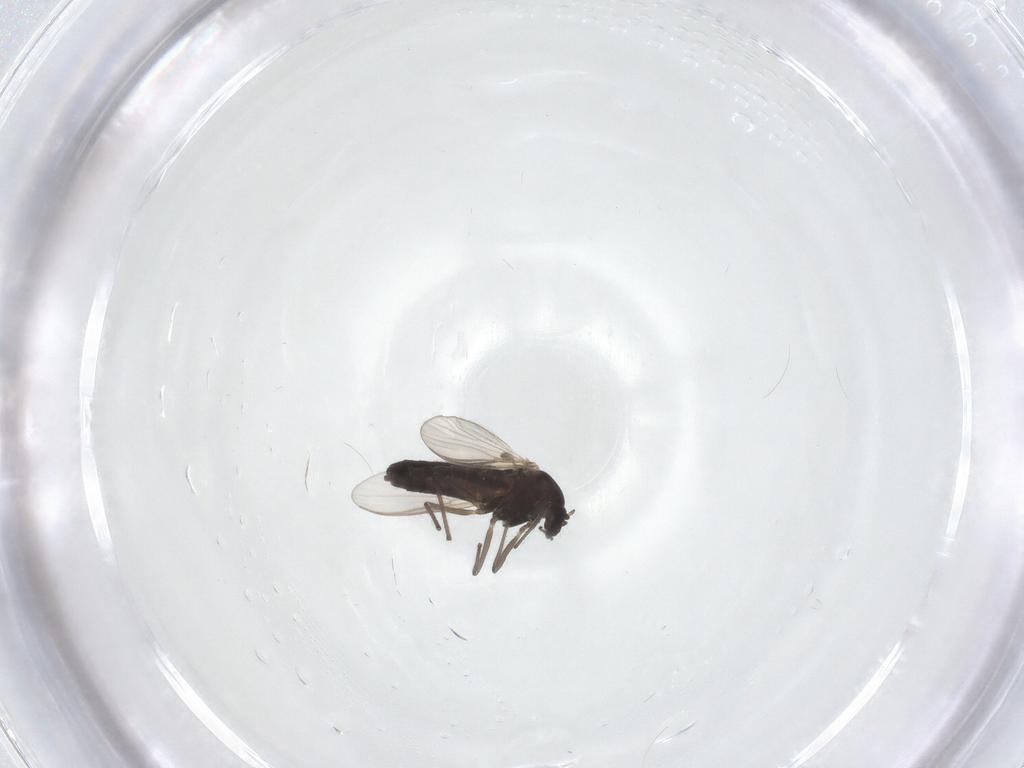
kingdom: Animalia
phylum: Arthropoda
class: Insecta
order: Diptera
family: Chironomidae
